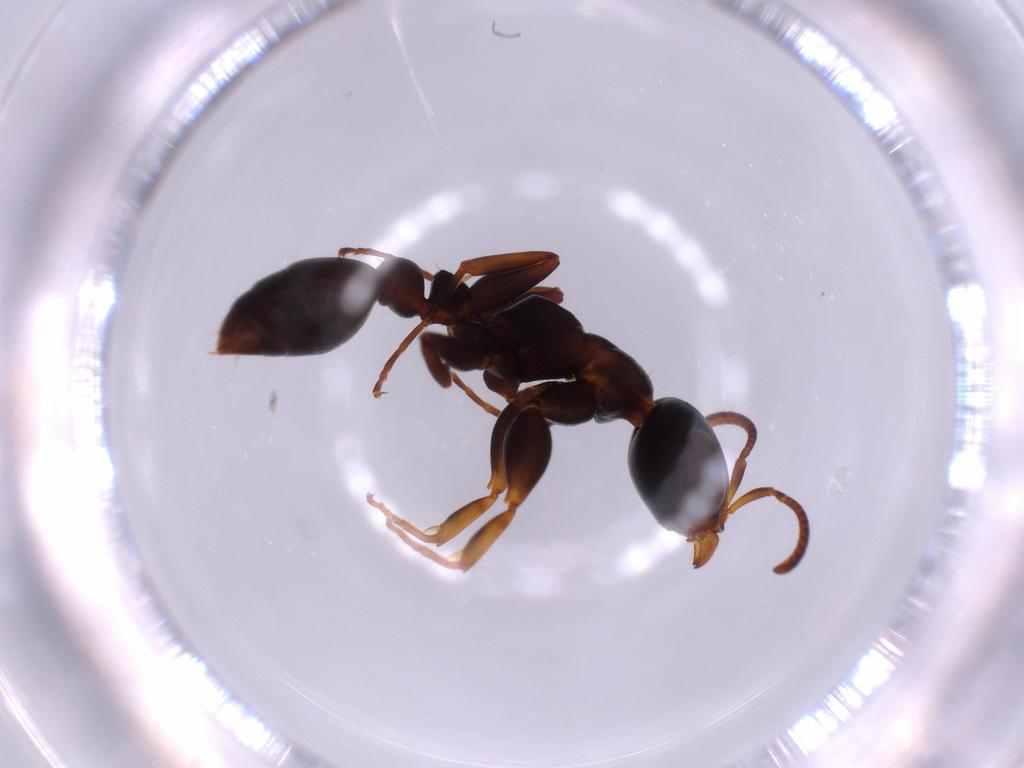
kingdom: Animalia
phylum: Arthropoda
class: Insecta
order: Hymenoptera
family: Formicidae
